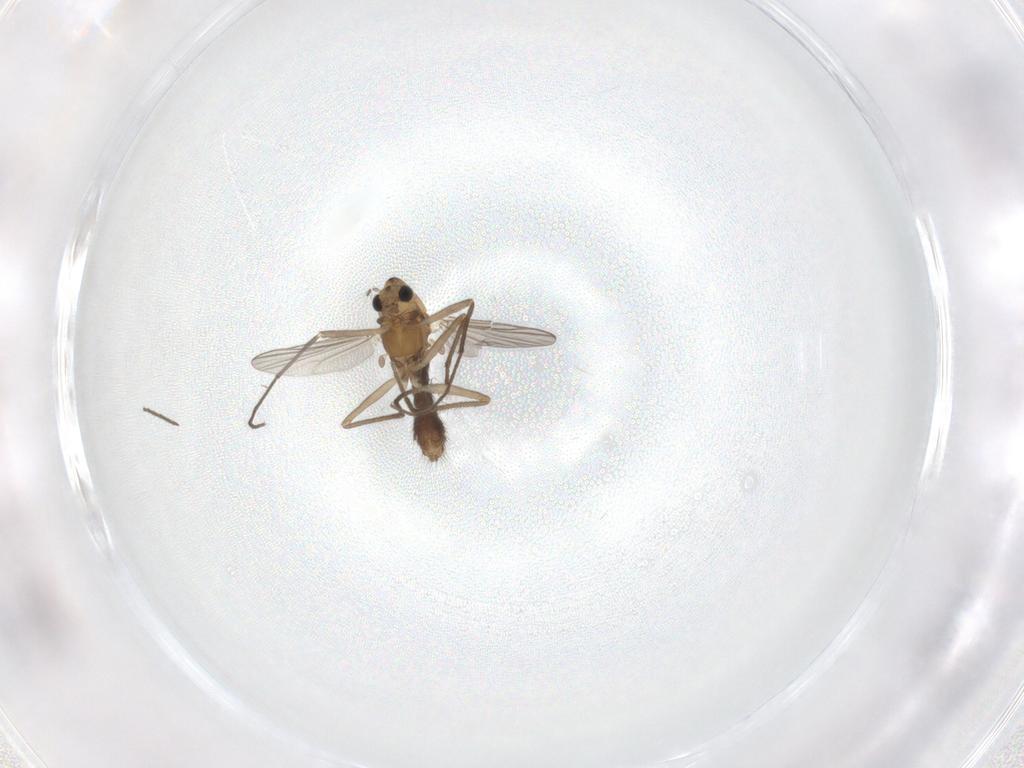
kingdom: Animalia
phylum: Arthropoda
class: Insecta
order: Diptera
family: Chironomidae
